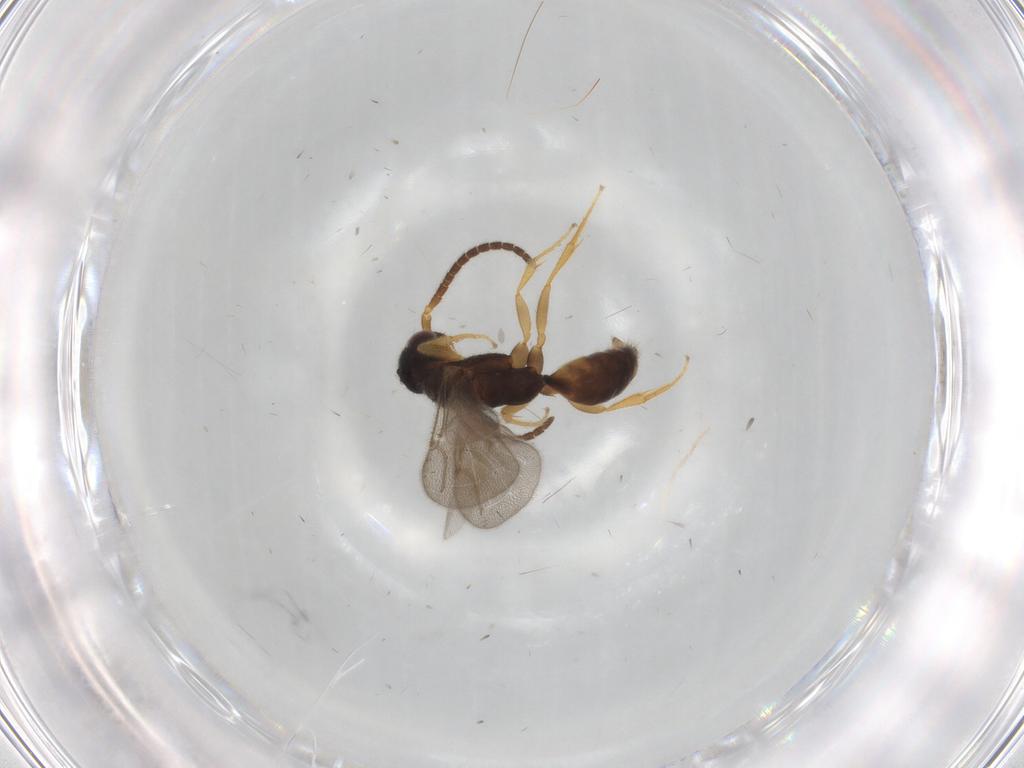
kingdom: Animalia
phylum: Arthropoda
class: Insecta
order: Hymenoptera
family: Bethylidae
